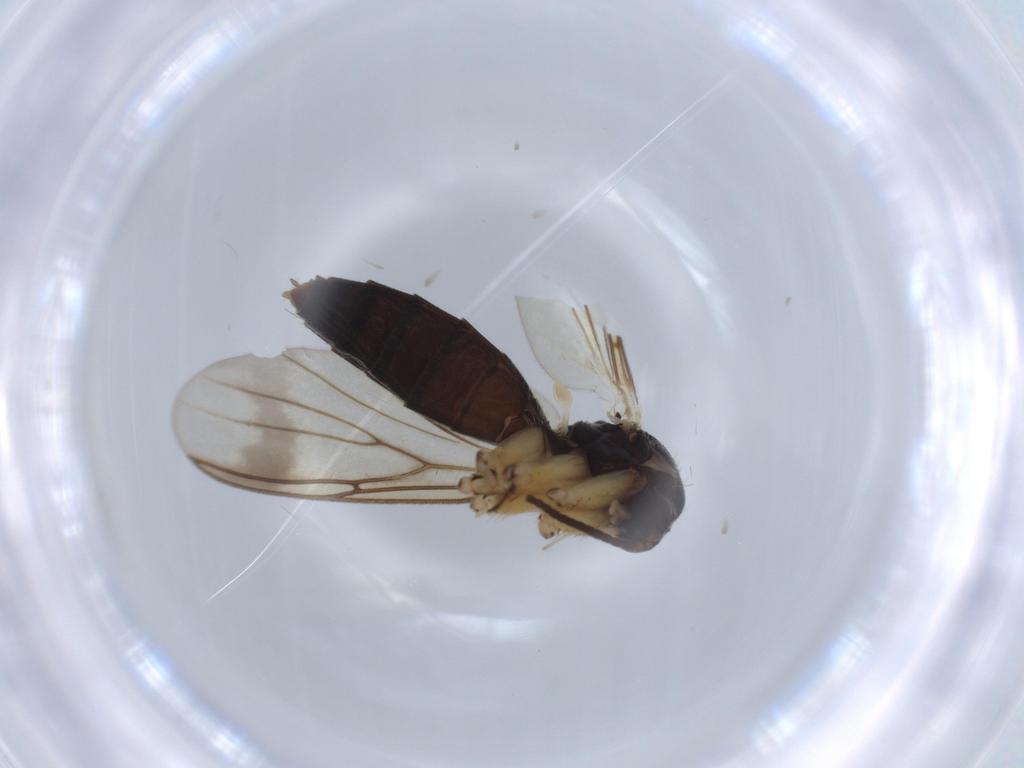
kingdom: Animalia
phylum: Arthropoda
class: Insecta
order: Diptera
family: Mycetophilidae
